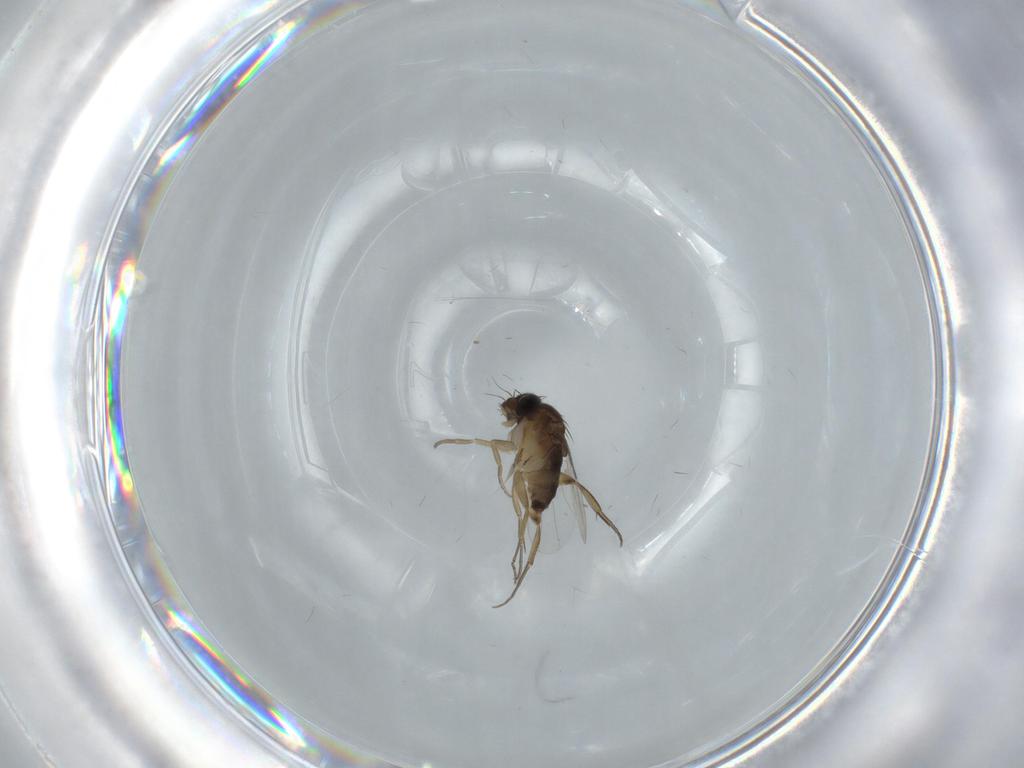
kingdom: Animalia
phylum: Arthropoda
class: Insecta
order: Diptera
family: Phoridae
